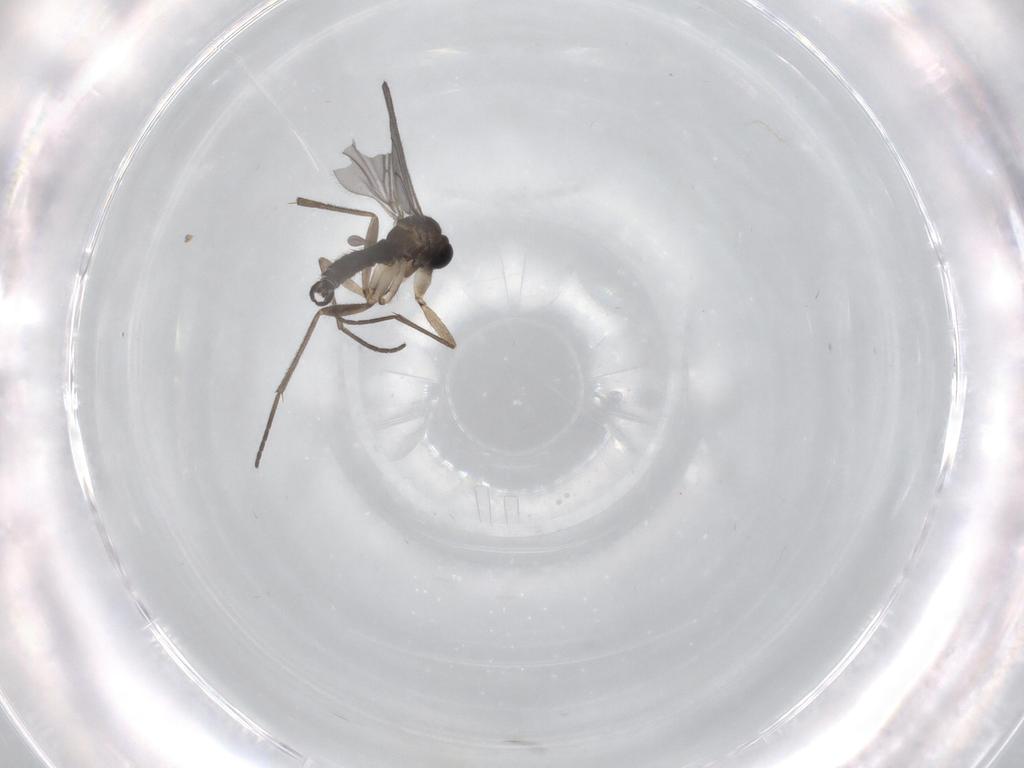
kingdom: Animalia
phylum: Arthropoda
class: Insecta
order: Diptera
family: Sciaridae
